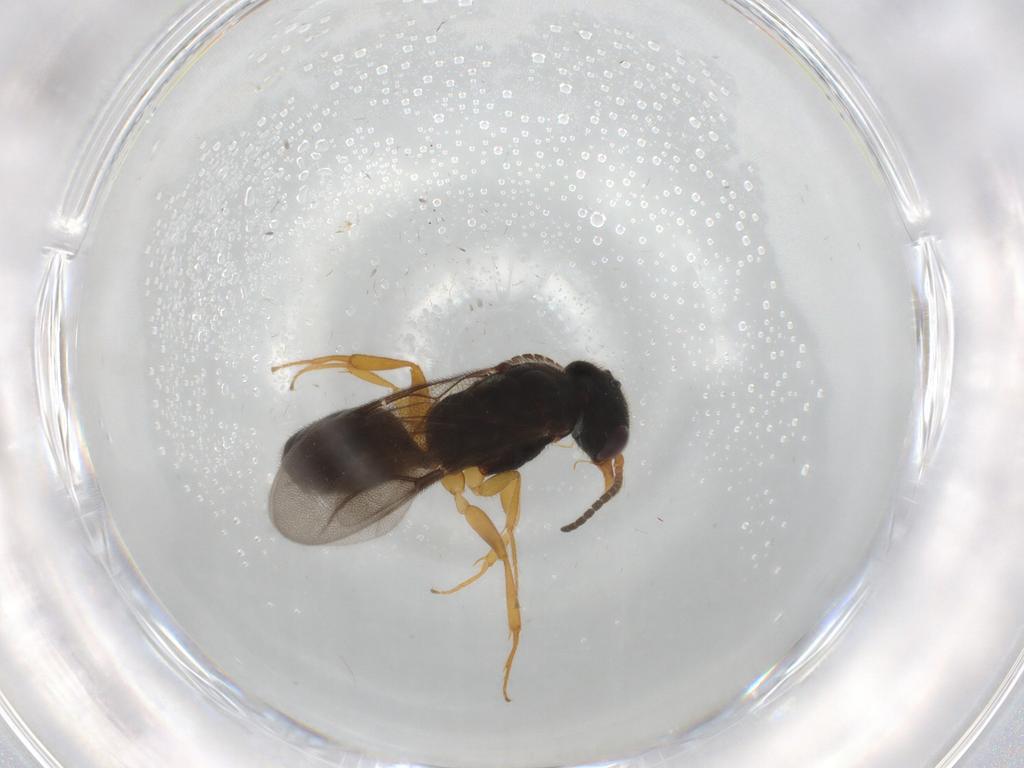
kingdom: Animalia
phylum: Arthropoda
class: Insecta
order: Hymenoptera
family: Bethylidae
